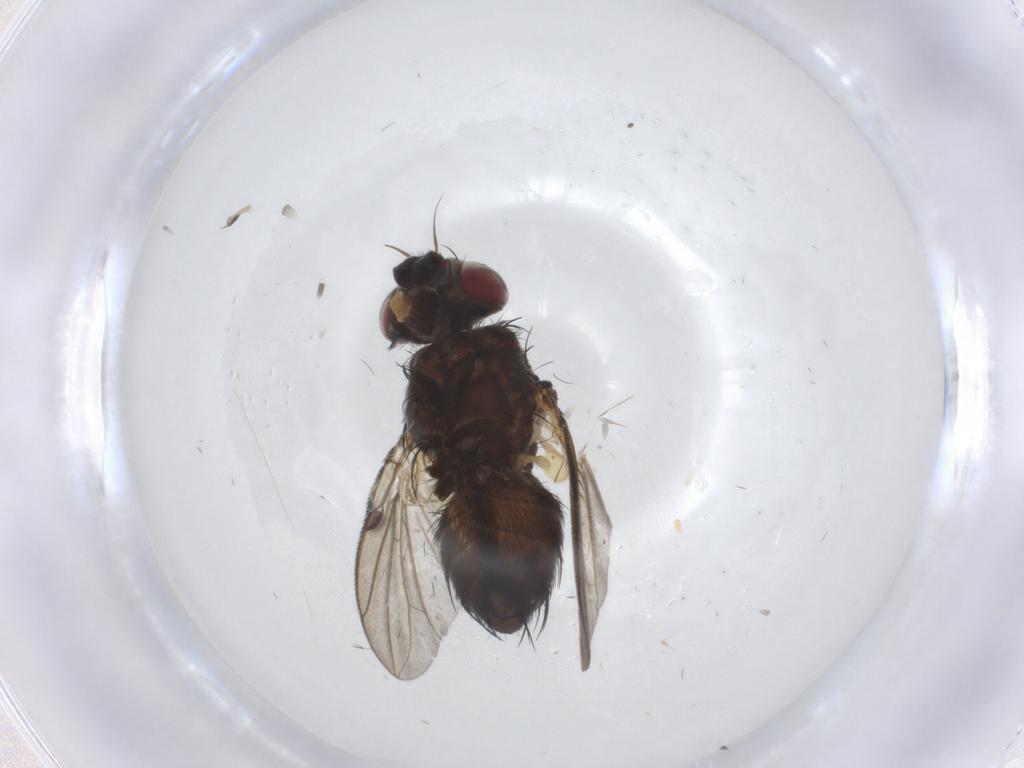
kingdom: Animalia
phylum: Arthropoda
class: Insecta
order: Diptera
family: Tachinidae
